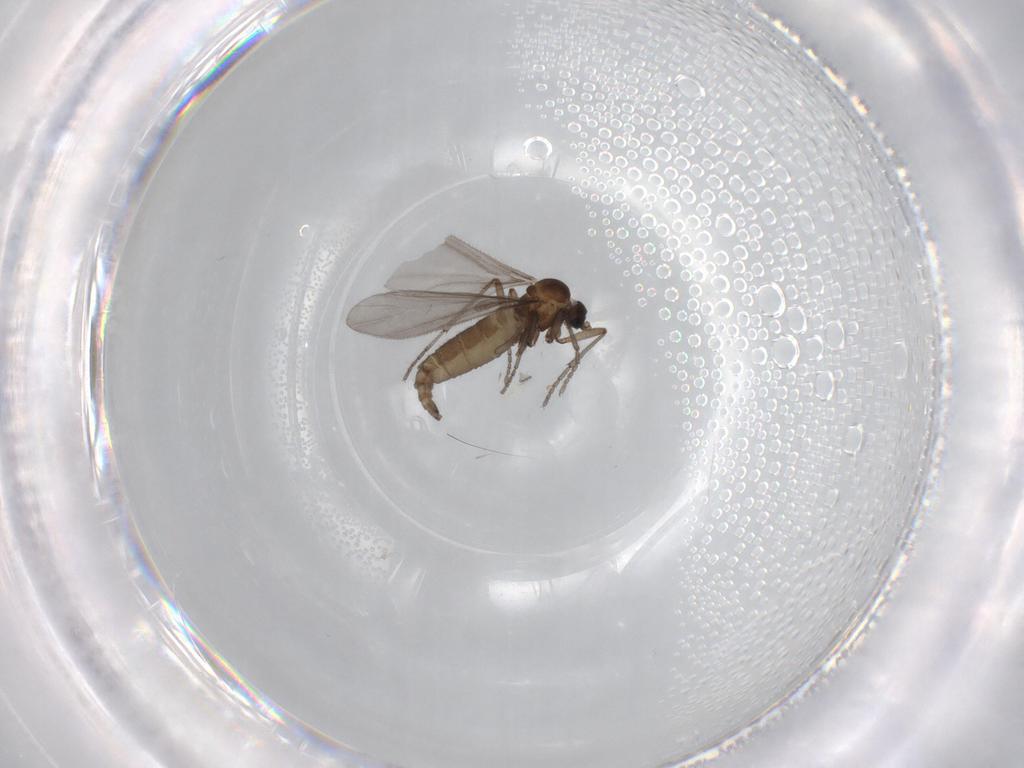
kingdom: Animalia
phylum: Arthropoda
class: Insecta
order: Diptera
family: Sciaridae
